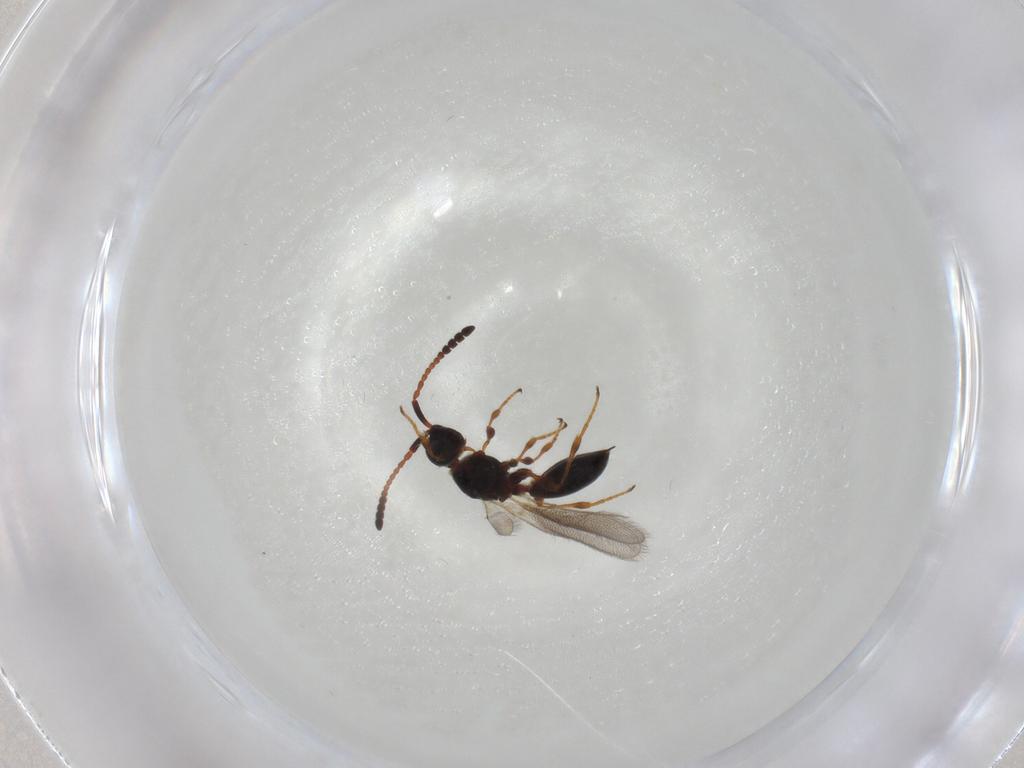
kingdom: Animalia
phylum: Arthropoda
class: Insecta
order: Hymenoptera
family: Diapriidae
